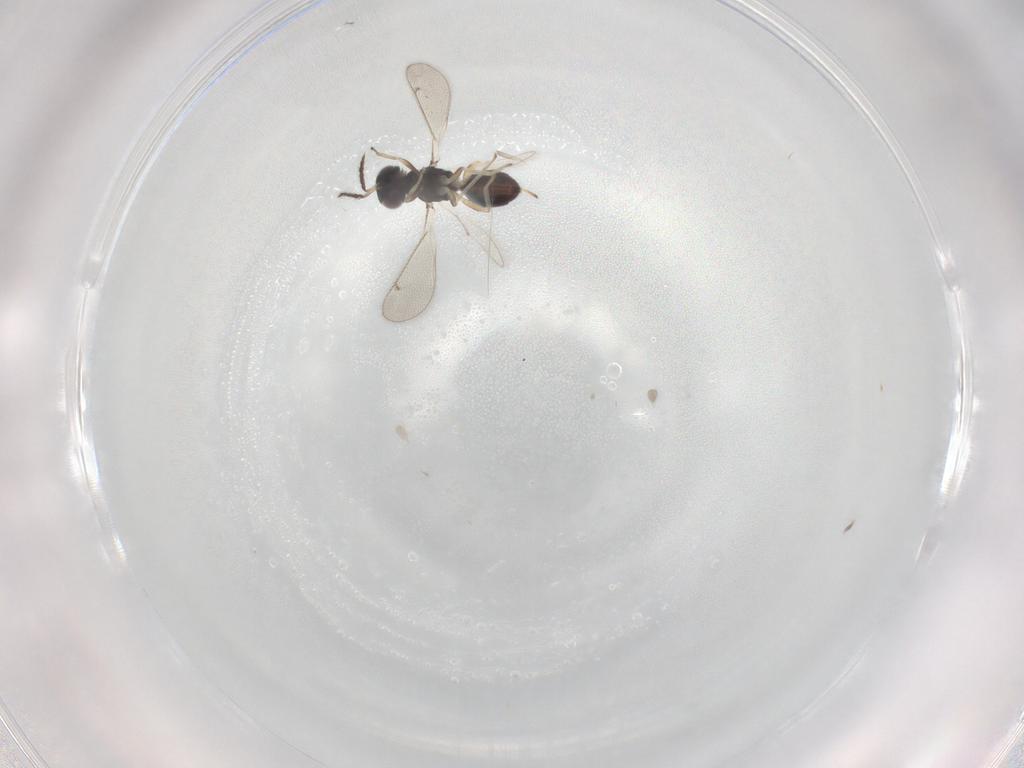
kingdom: Animalia
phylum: Arthropoda
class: Insecta
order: Hymenoptera
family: Eulophidae
